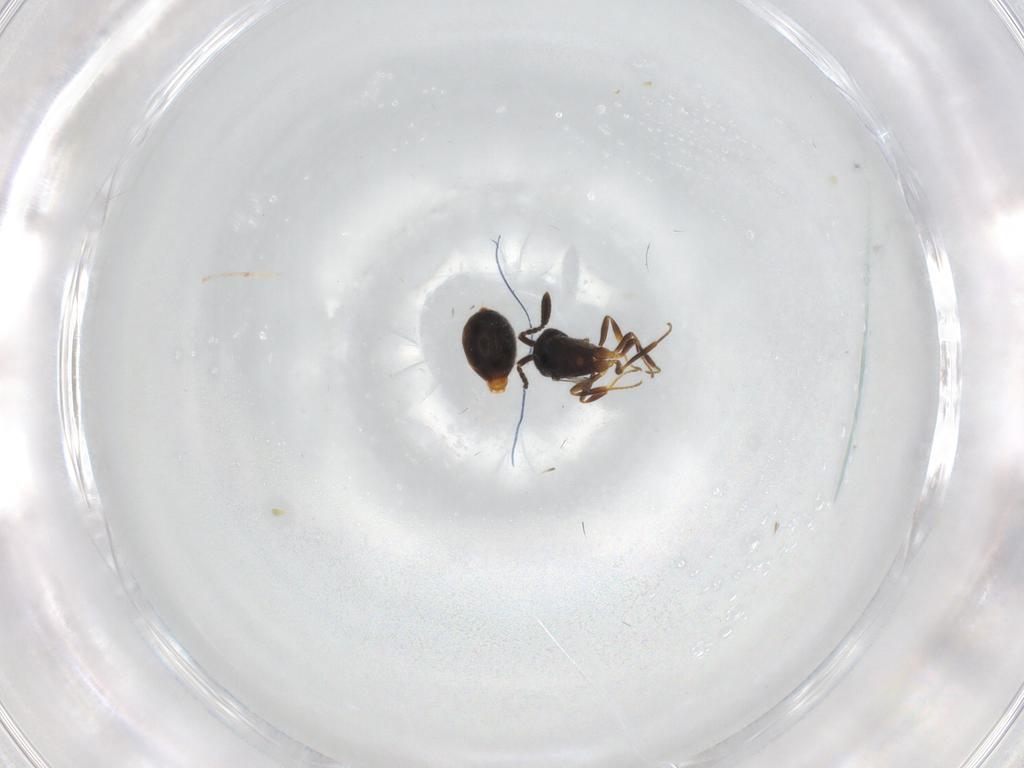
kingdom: Animalia
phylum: Arthropoda
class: Insecta
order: Hymenoptera
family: Scelionidae
